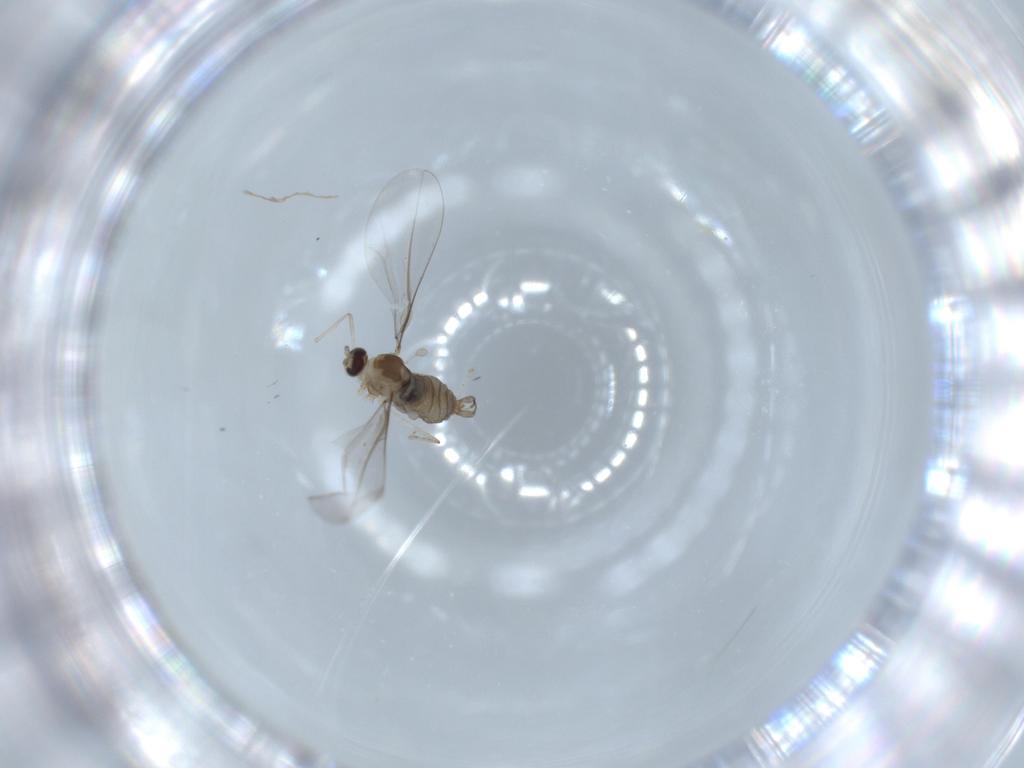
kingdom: Animalia
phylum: Arthropoda
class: Insecta
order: Diptera
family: Cecidomyiidae
